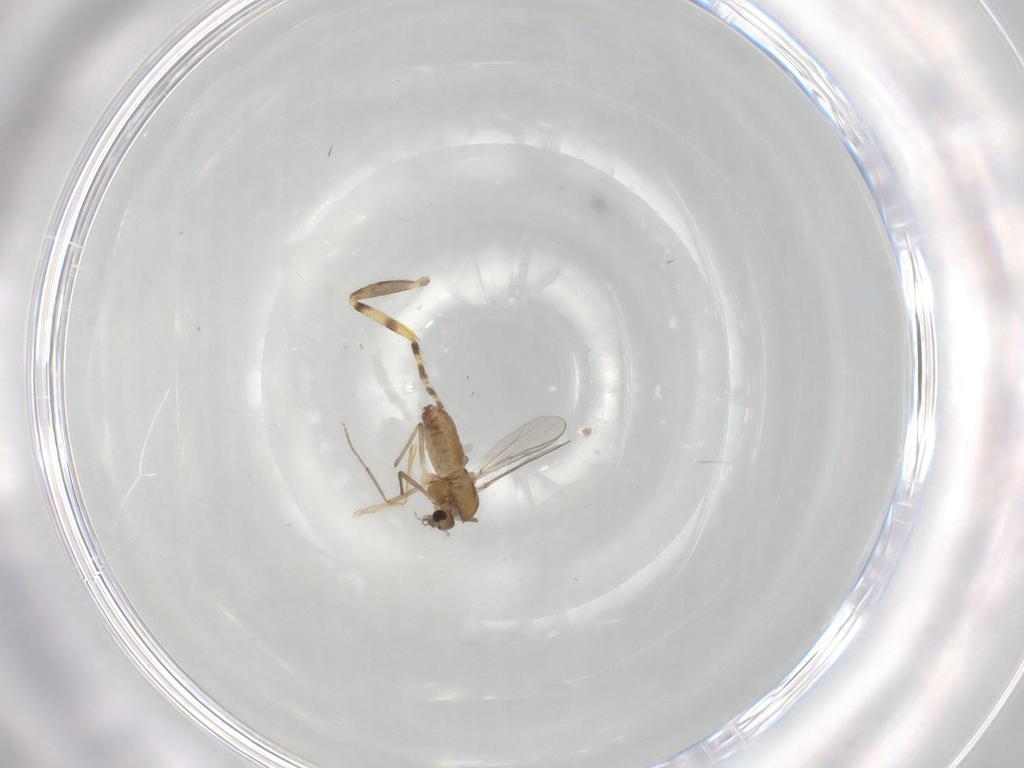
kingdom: Animalia
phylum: Arthropoda
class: Insecta
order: Diptera
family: Chironomidae
